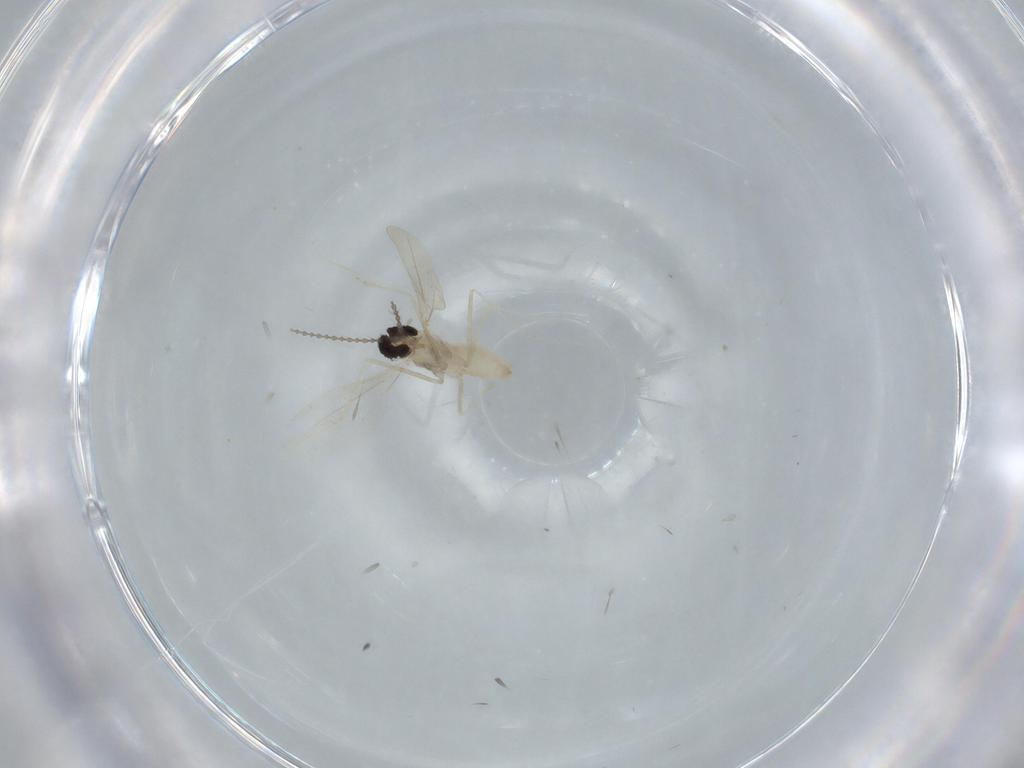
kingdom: Animalia
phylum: Arthropoda
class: Insecta
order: Diptera
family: Cecidomyiidae
